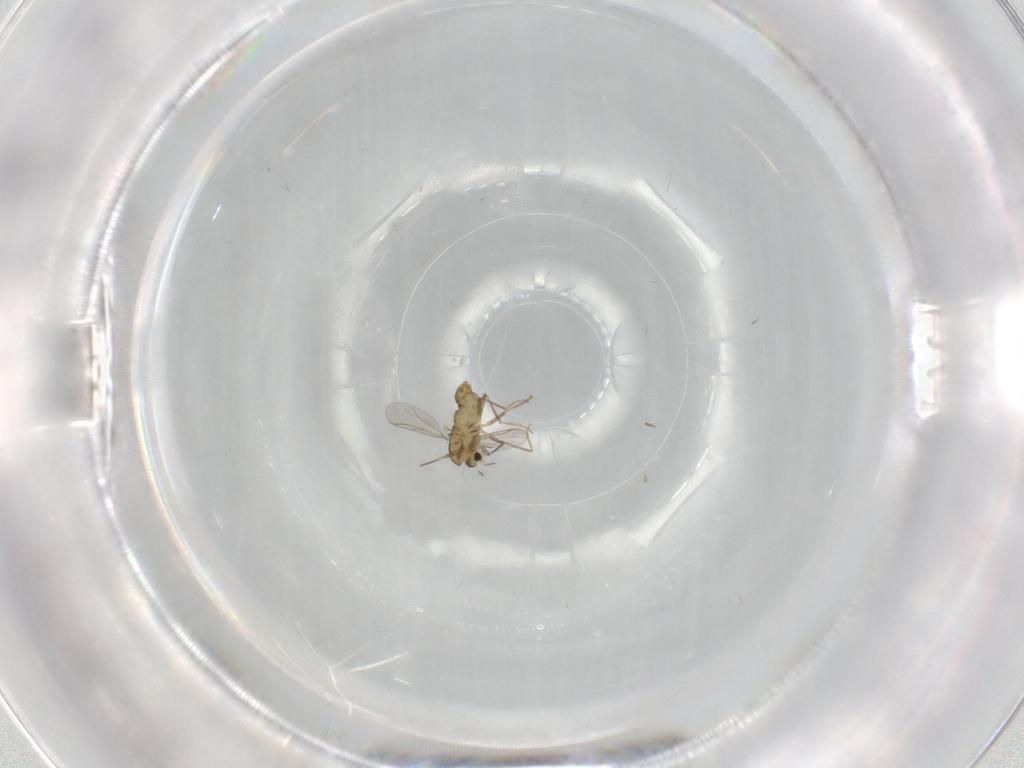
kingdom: Animalia
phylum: Arthropoda
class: Insecta
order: Diptera
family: Chironomidae
